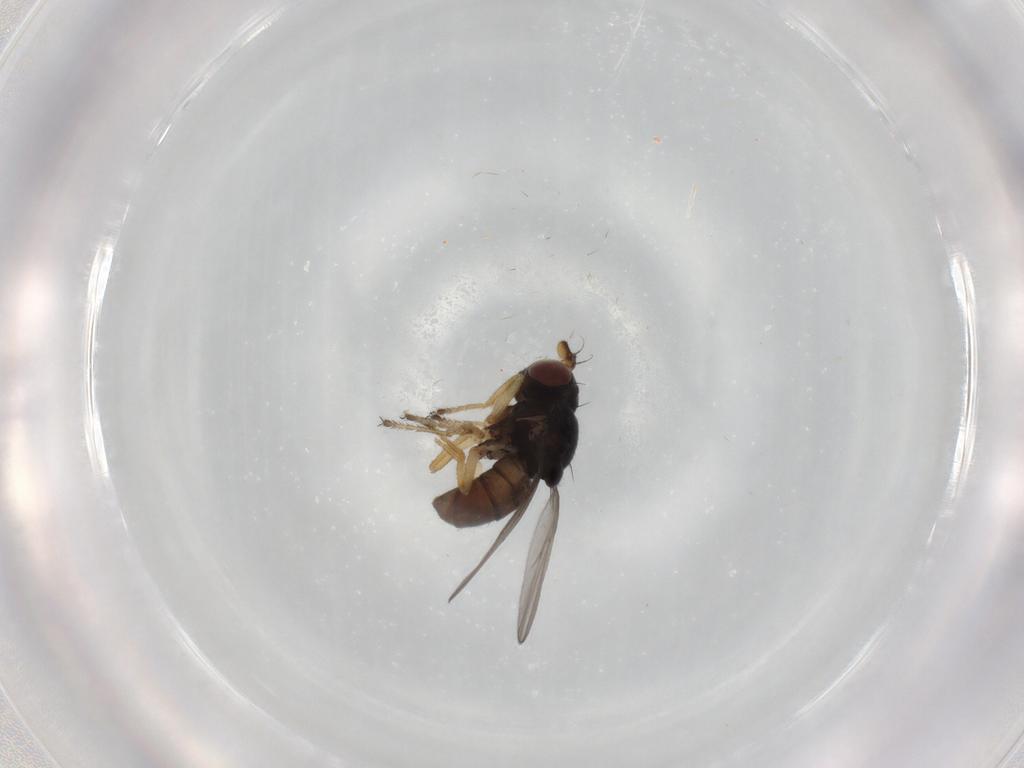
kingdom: Animalia
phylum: Arthropoda
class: Insecta
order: Diptera
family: Ephydridae
